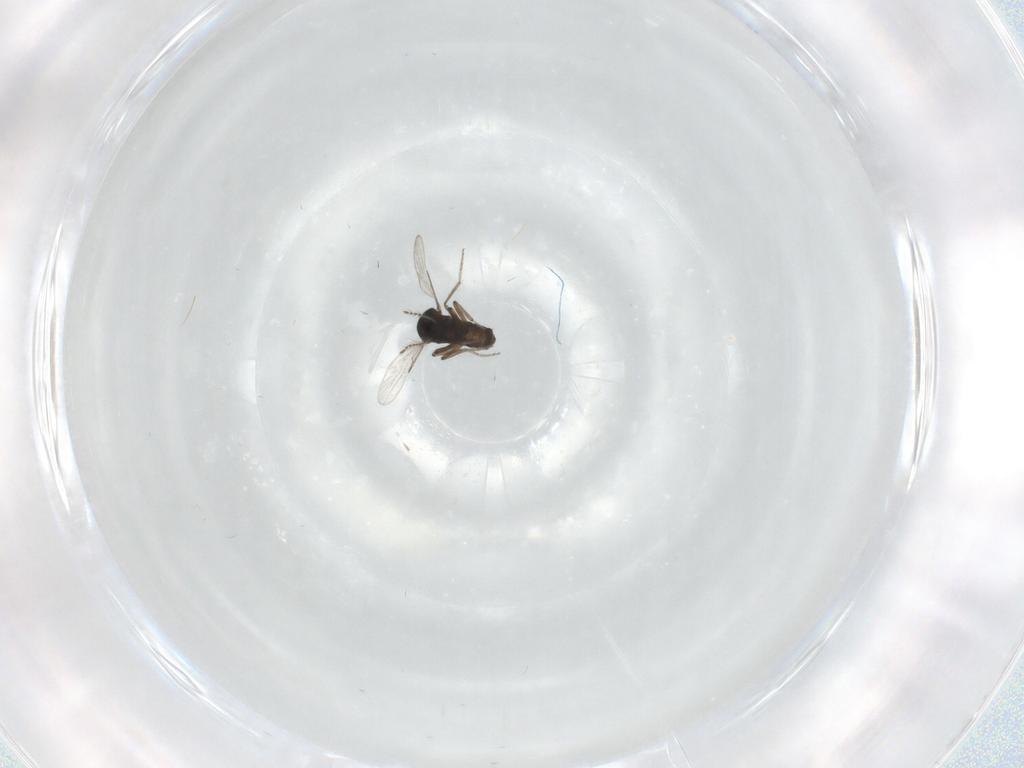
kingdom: Animalia
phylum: Arthropoda
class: Insecta
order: Diptera
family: Ceratopogonidae
